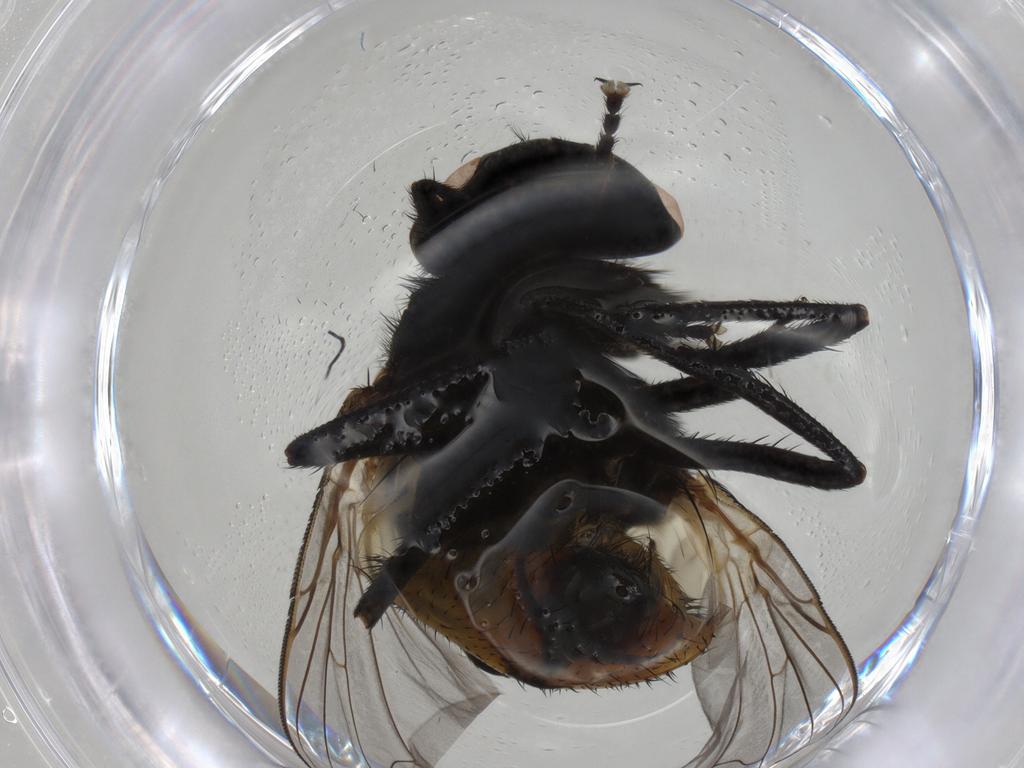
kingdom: Animalia
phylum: Arthropoda
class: Insecta
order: Diptera
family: Muscidae
